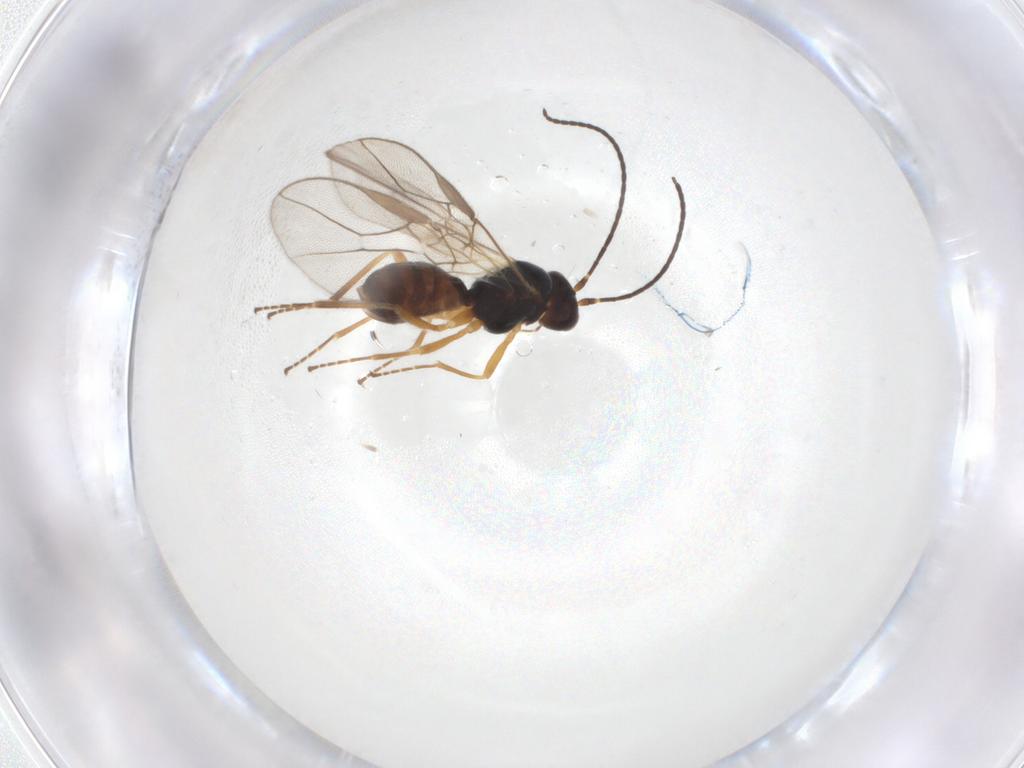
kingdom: Animalia
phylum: Arthropoda
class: Insecta
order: Hymenoptera
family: Braconidae
